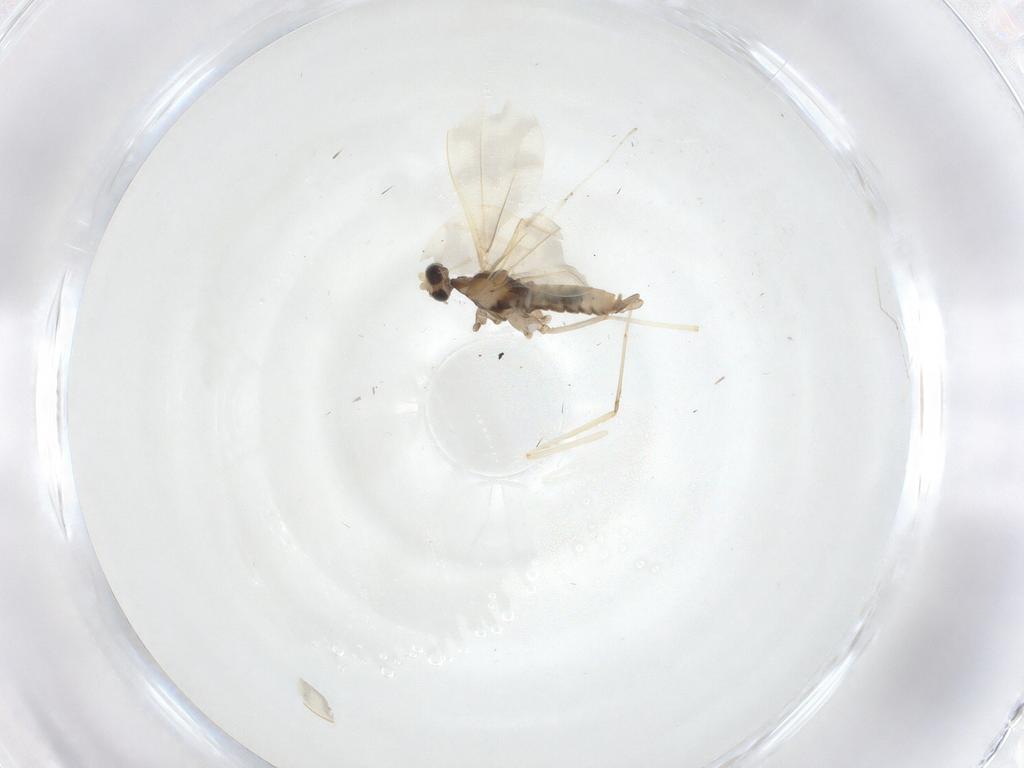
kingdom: Animalia
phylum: Arthropoda
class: Insecta
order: Diptera
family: Cecidomyiidae
